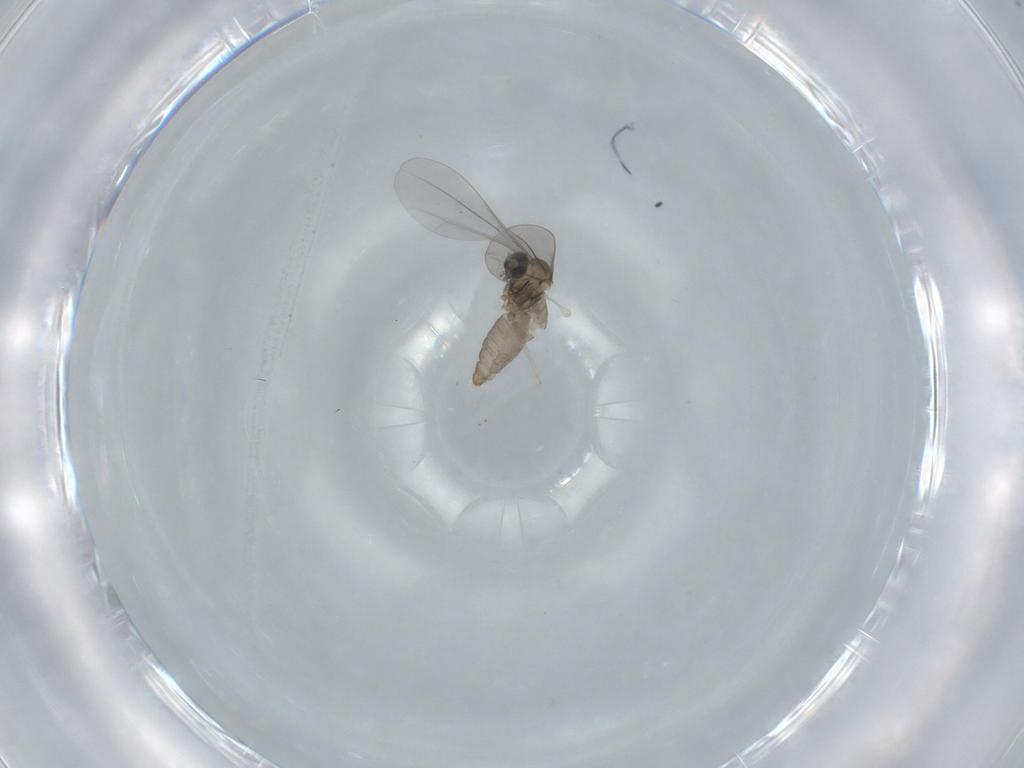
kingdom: Animalia
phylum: Arthropoda
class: Insecta
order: Diptera
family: Cecidomyiidae
